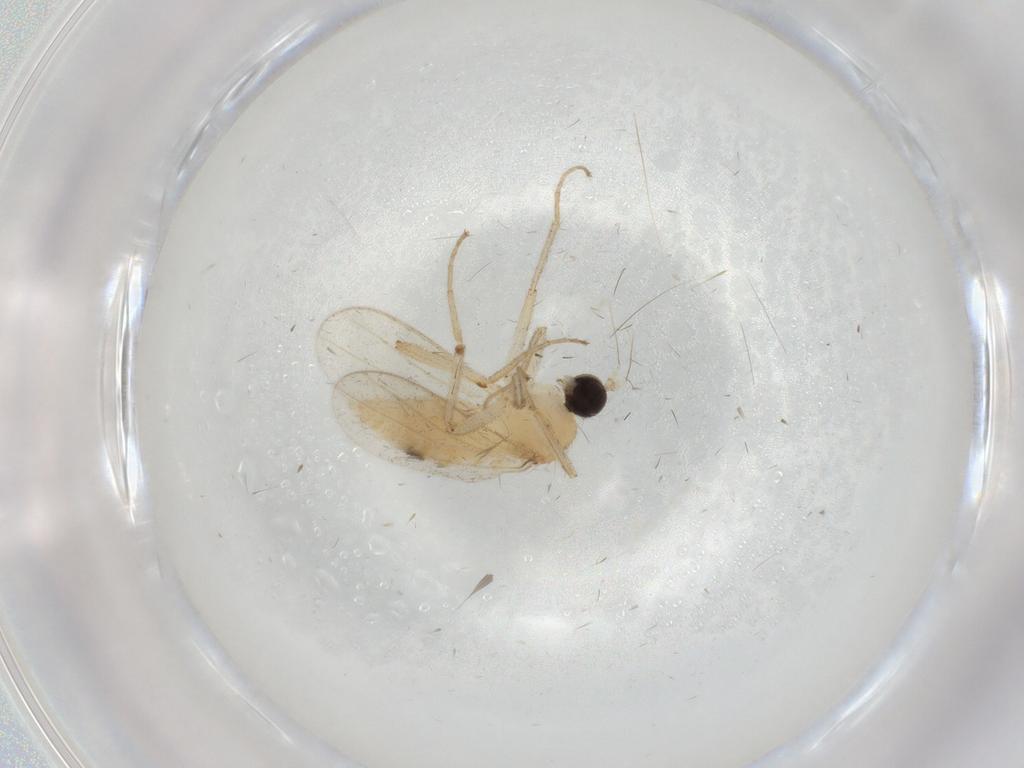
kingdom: Animalia
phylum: Arthropoda
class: Insecta
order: Diptera
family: Hybotidae
